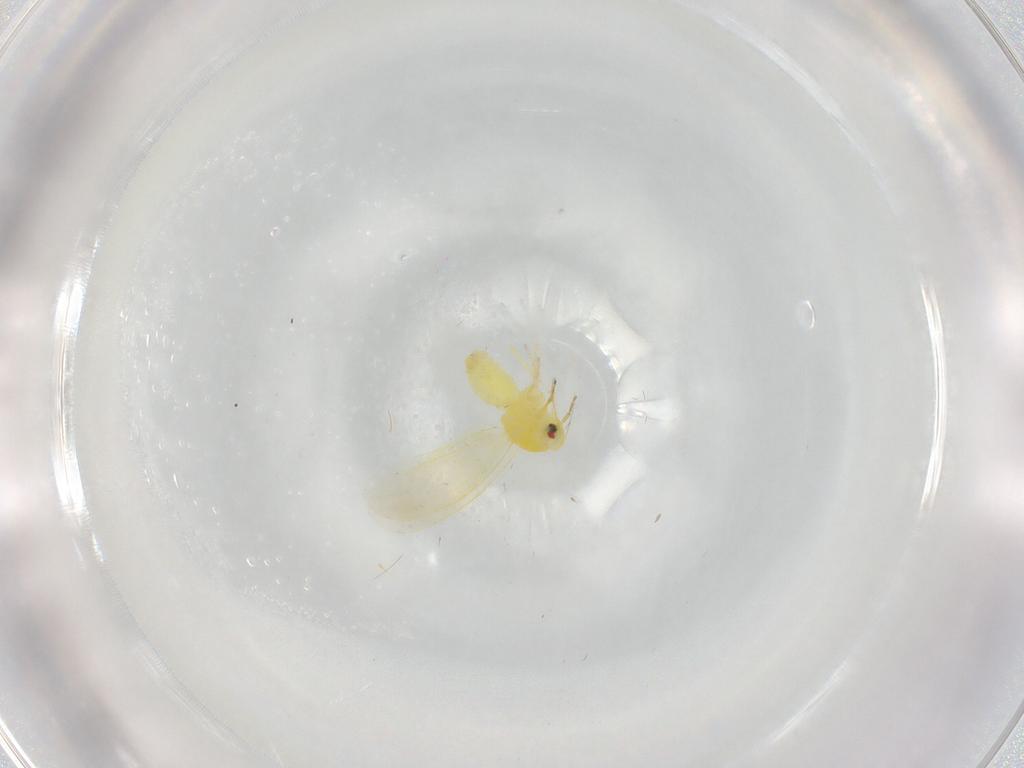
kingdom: Animalia
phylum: Arthropoda
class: Insecta
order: Hemiptera
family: Aleyrodidae
